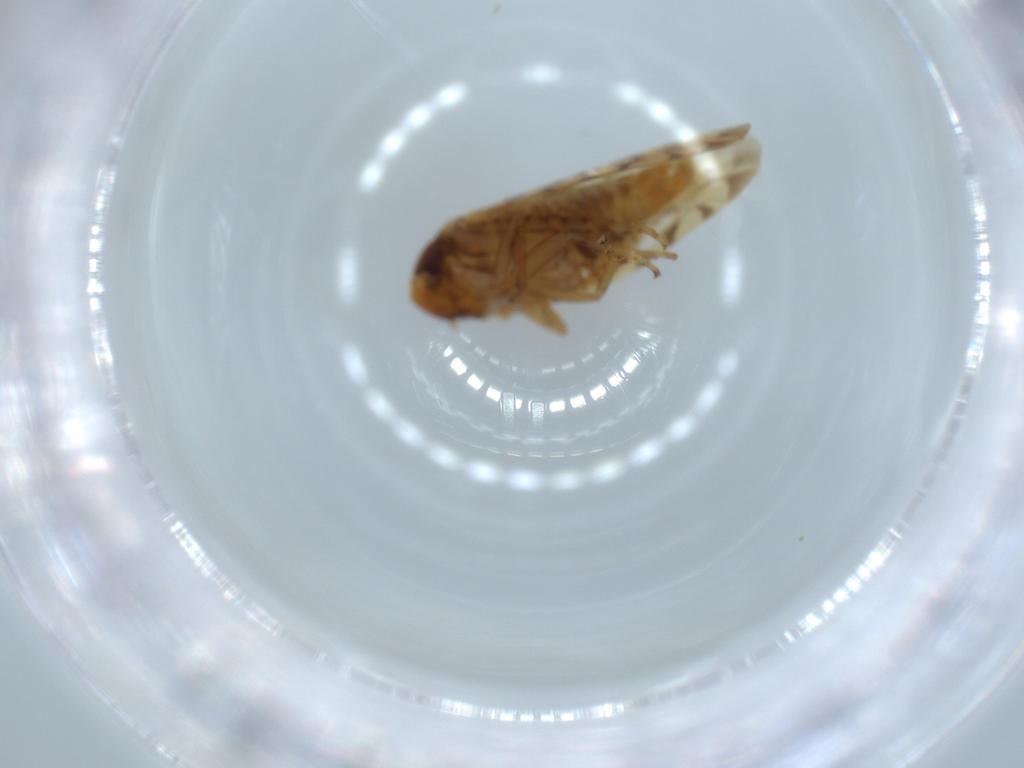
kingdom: Animalia
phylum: Arthropoda
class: Insecta
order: Hemiptera
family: Cicadellidae
